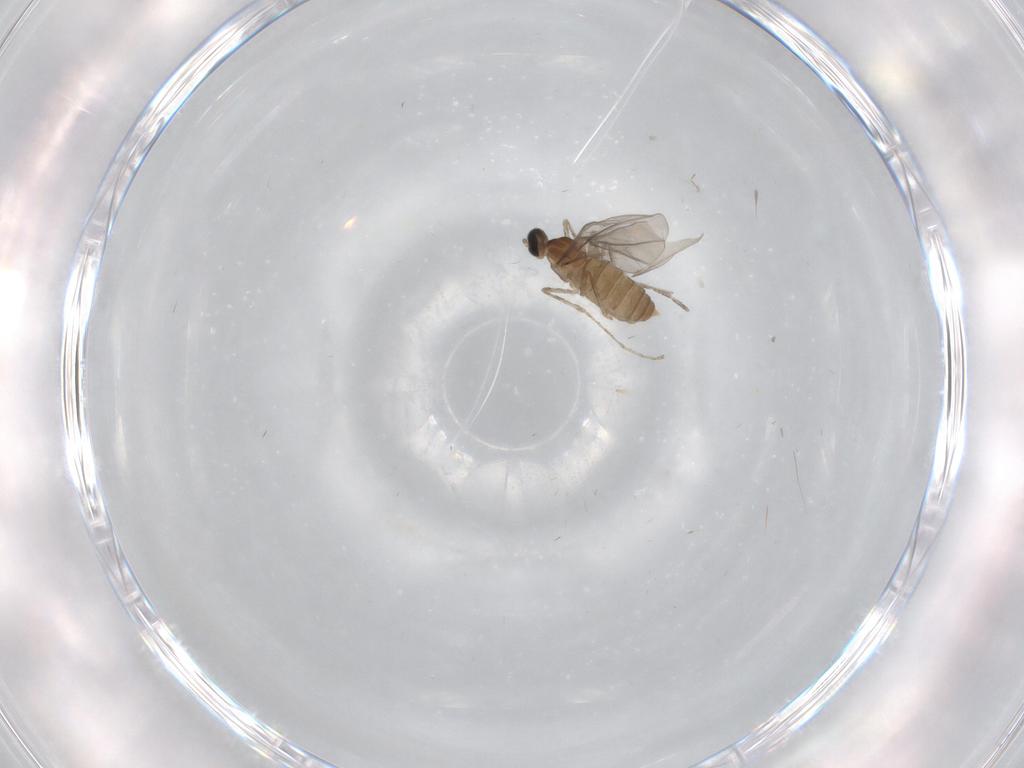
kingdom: Animalia
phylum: Arthropoda
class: Insecta
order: Diptera
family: Cecidomyiidae
